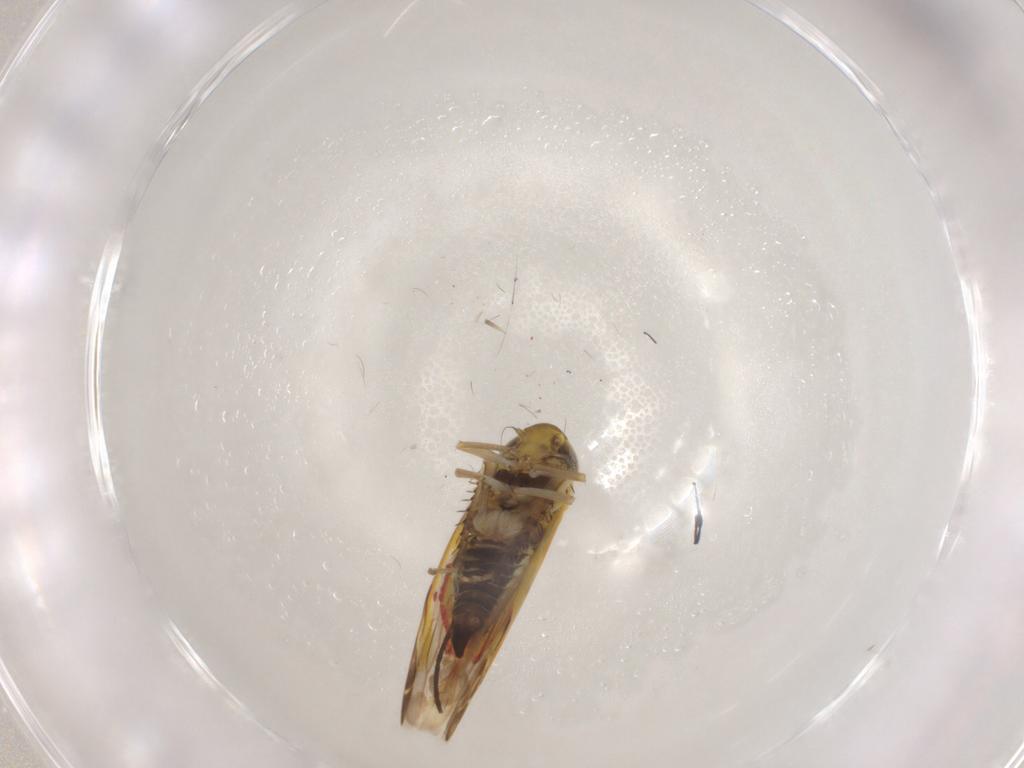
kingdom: Animalia
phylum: Arthropoda
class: Insecta
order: Hemiptera
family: Cicadellidae
